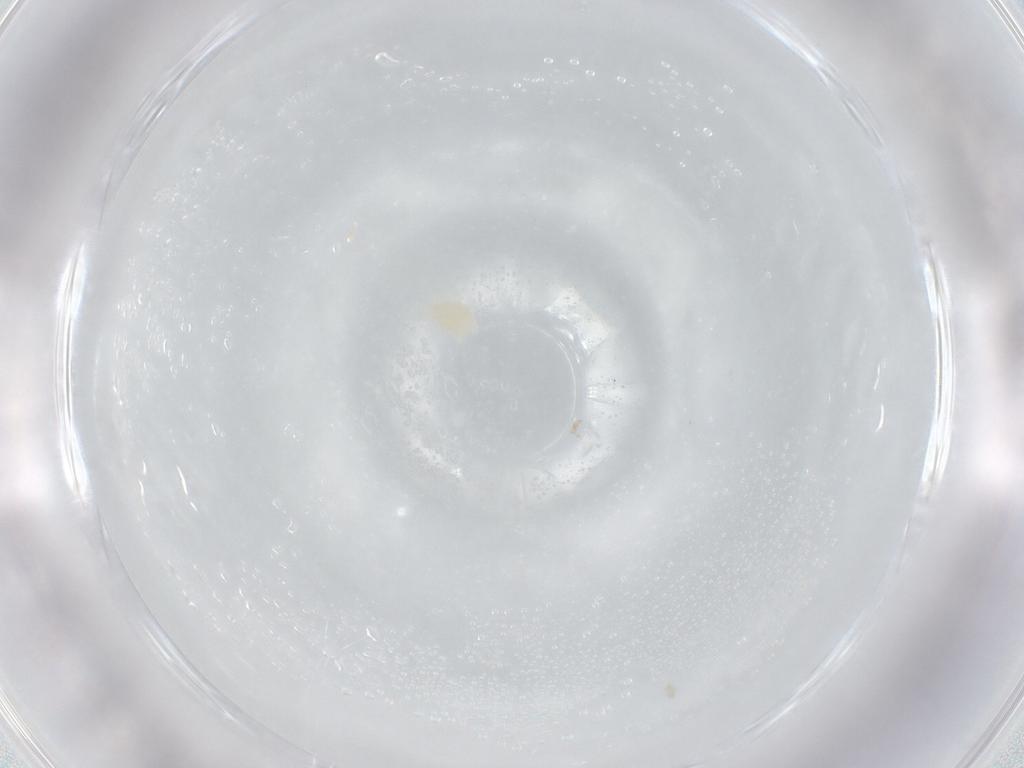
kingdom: Animalia
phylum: Arthropoda
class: Arachnida
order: Mesostigmata
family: Melicharidae
